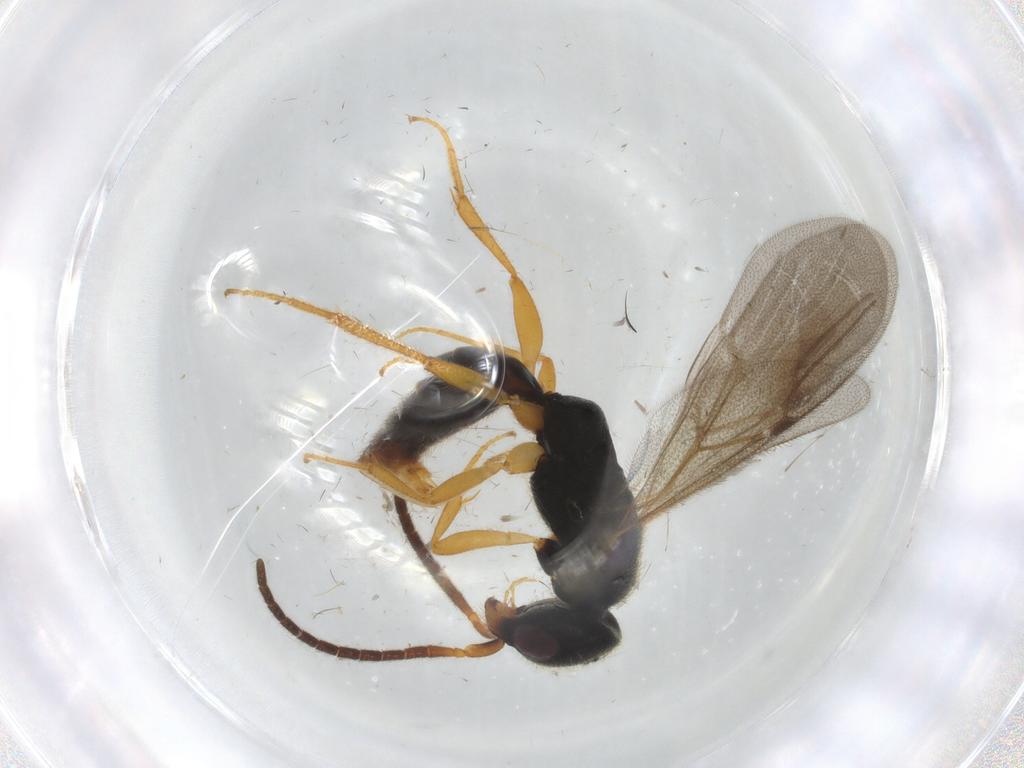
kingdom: Animalia
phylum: Arthropoda
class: Insecta
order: Hymenoptera
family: Bethylidae
